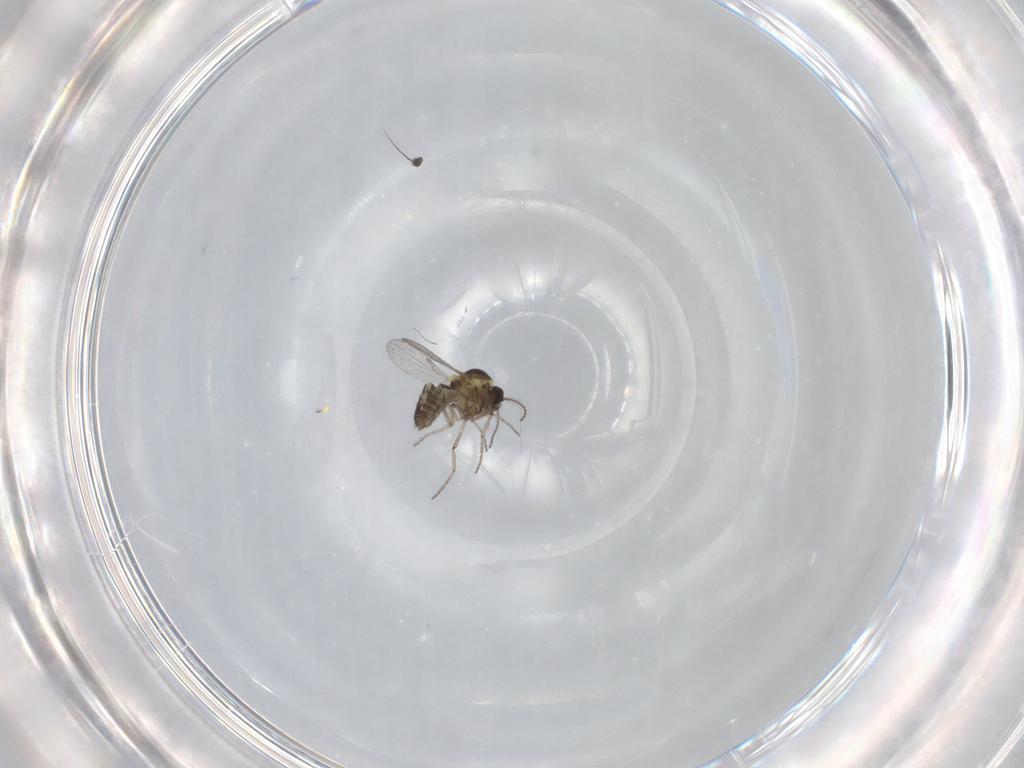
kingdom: Animalia
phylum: Arthropoda
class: Insecta
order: Diptera
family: Ceratopogonidae
